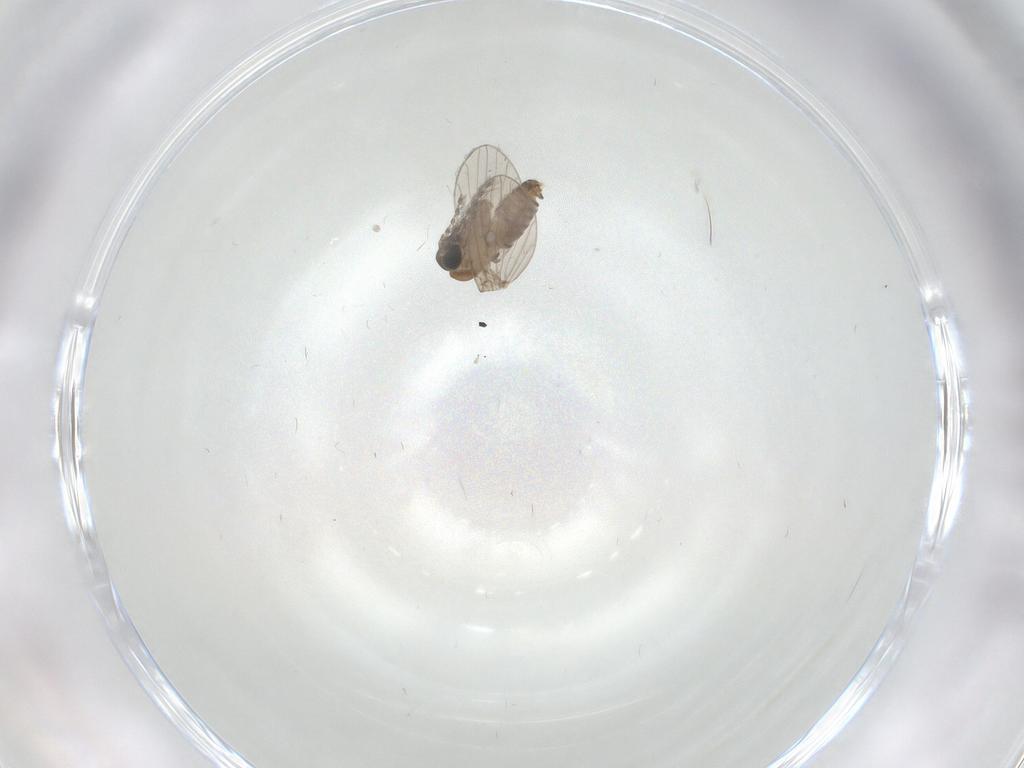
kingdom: Animalia
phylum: Arthropoda
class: Insecta
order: Diptera
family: Psychodidae
